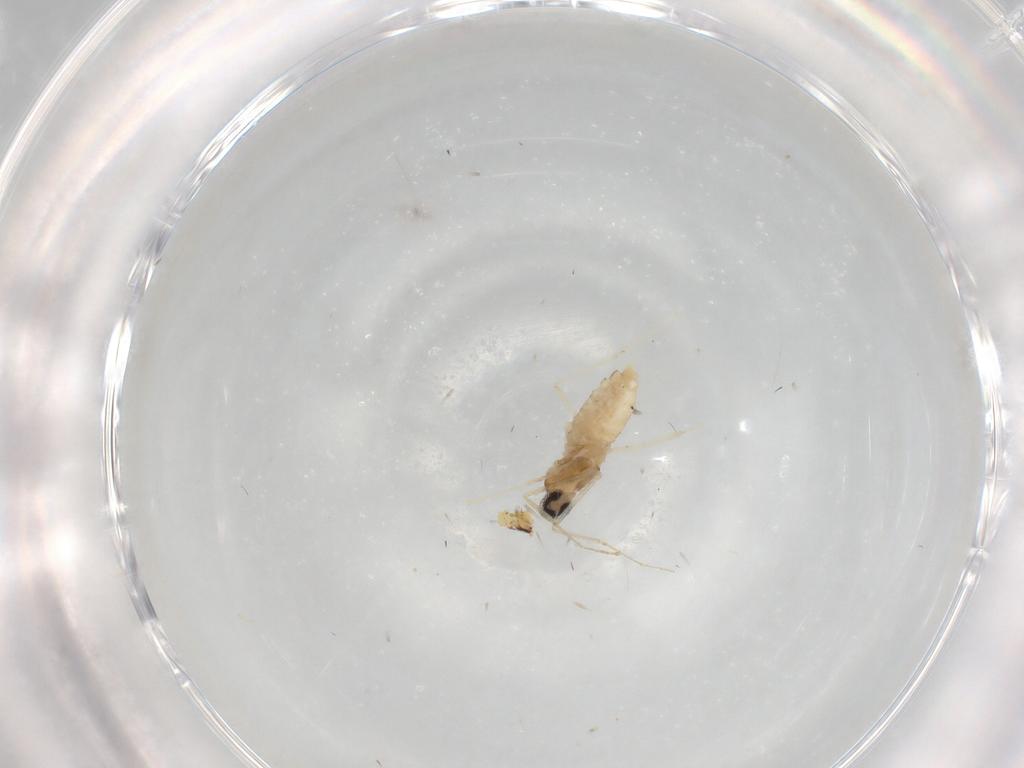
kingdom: Animalia
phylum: Arthropoda
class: Insecta
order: Diptera
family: Cecidomyiidae
